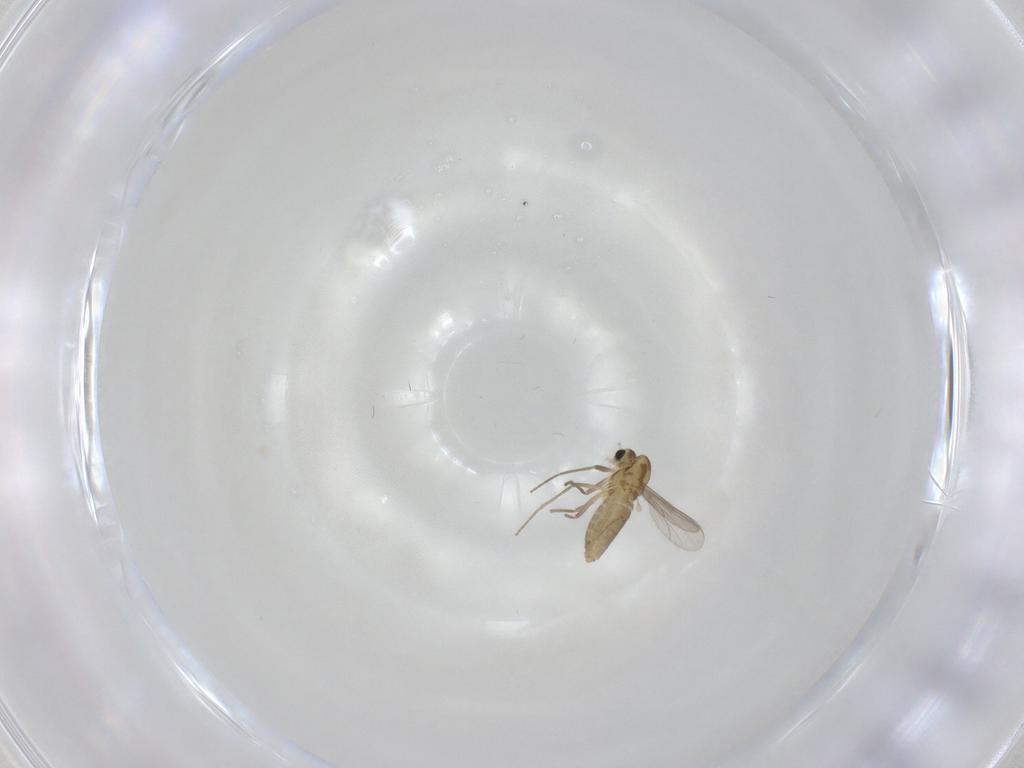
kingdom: Animalia
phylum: Arthropoda
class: Insecta
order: Diptera
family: Chironomidae
